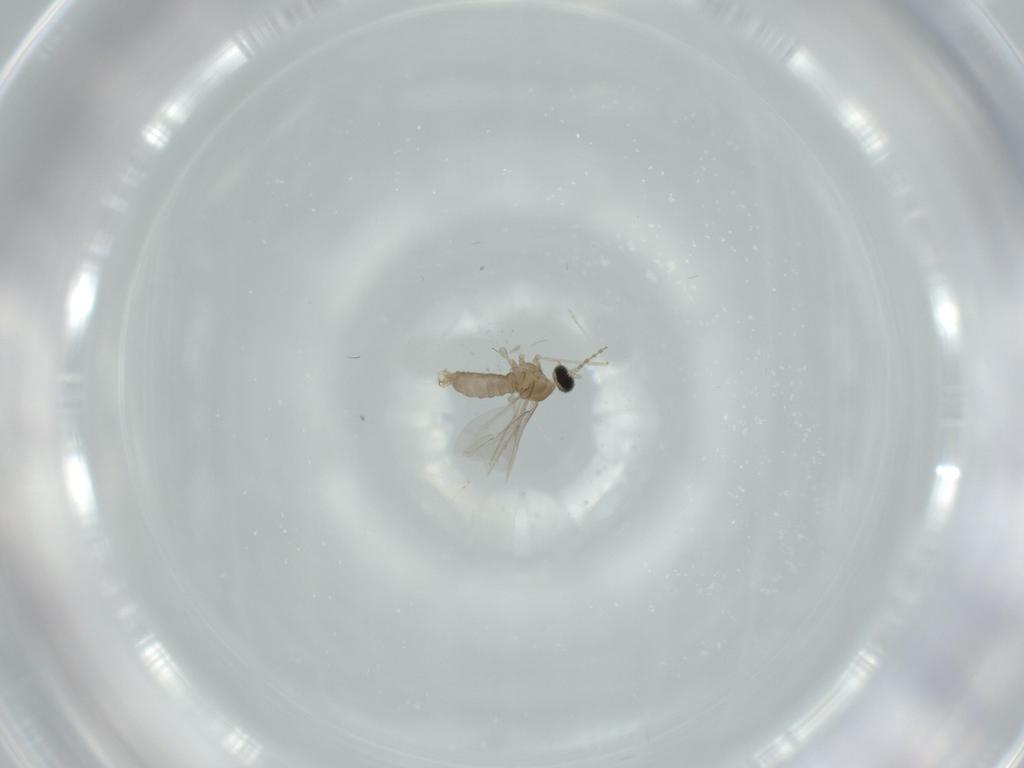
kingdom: Animalia
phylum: Arthropoda
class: Insecta
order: Diptera
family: Cecidomyiidae
